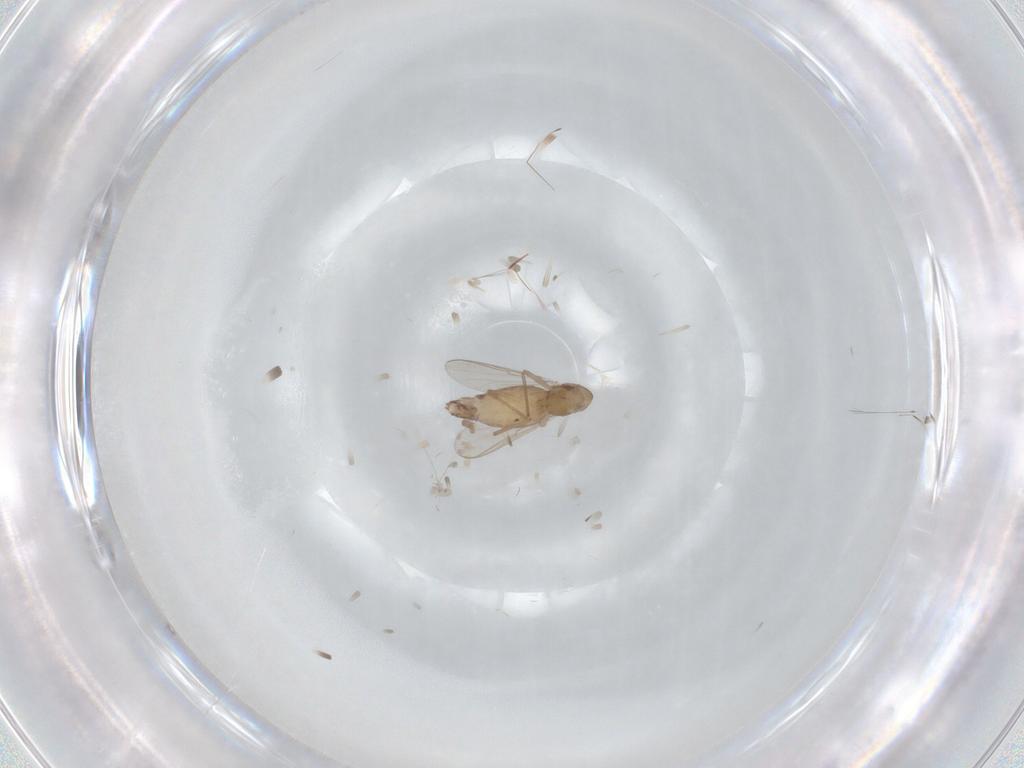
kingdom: Animalia
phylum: Arthropoda
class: Insecta
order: Diptera
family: Chironomidae
